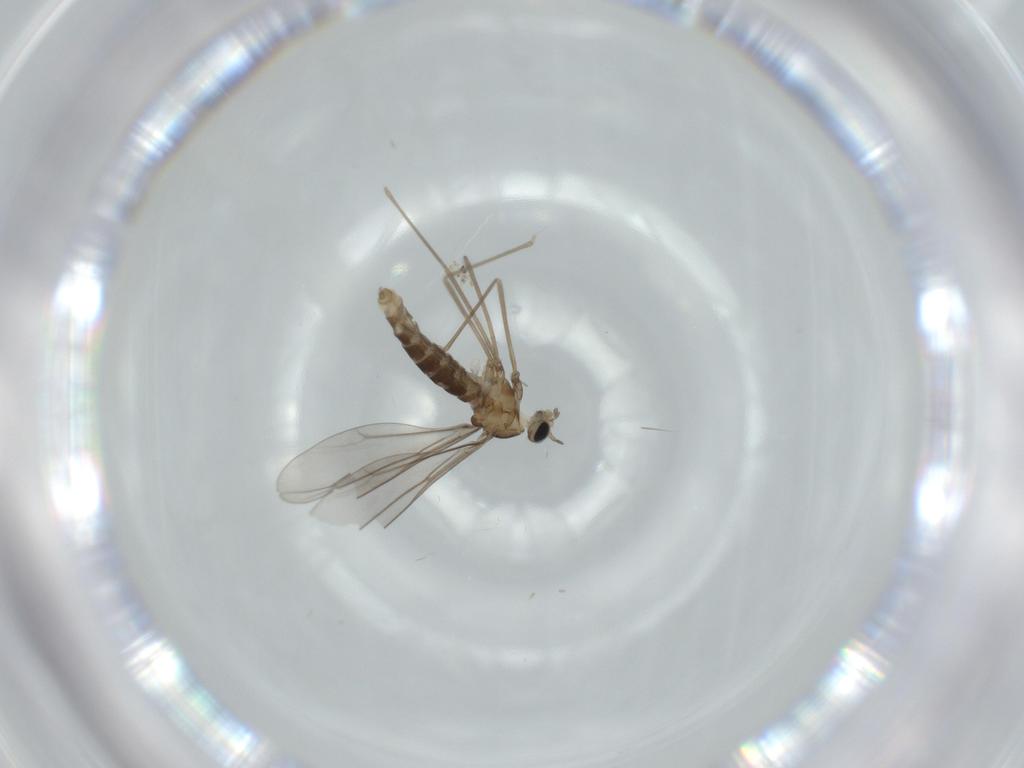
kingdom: Animalia
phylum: Arthropoda
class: Insecta
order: Diptera
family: Cecidomyiidae
